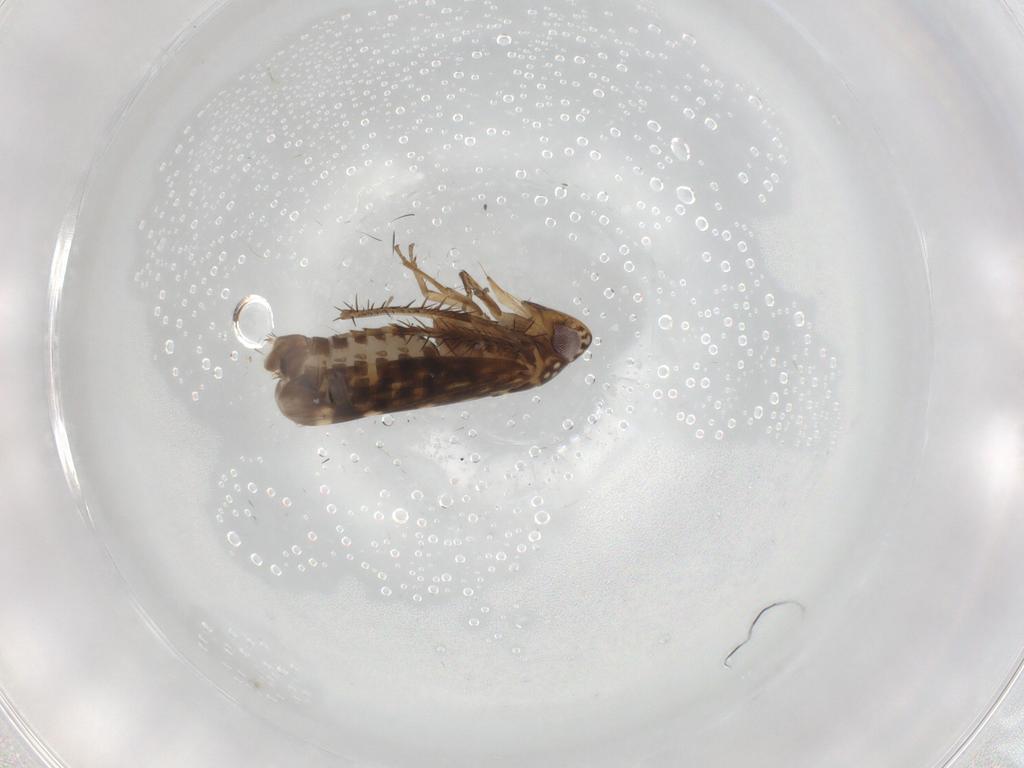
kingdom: Animalia
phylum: Arthropoda
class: Insecta
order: Hemiptera
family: Cicadellidae
